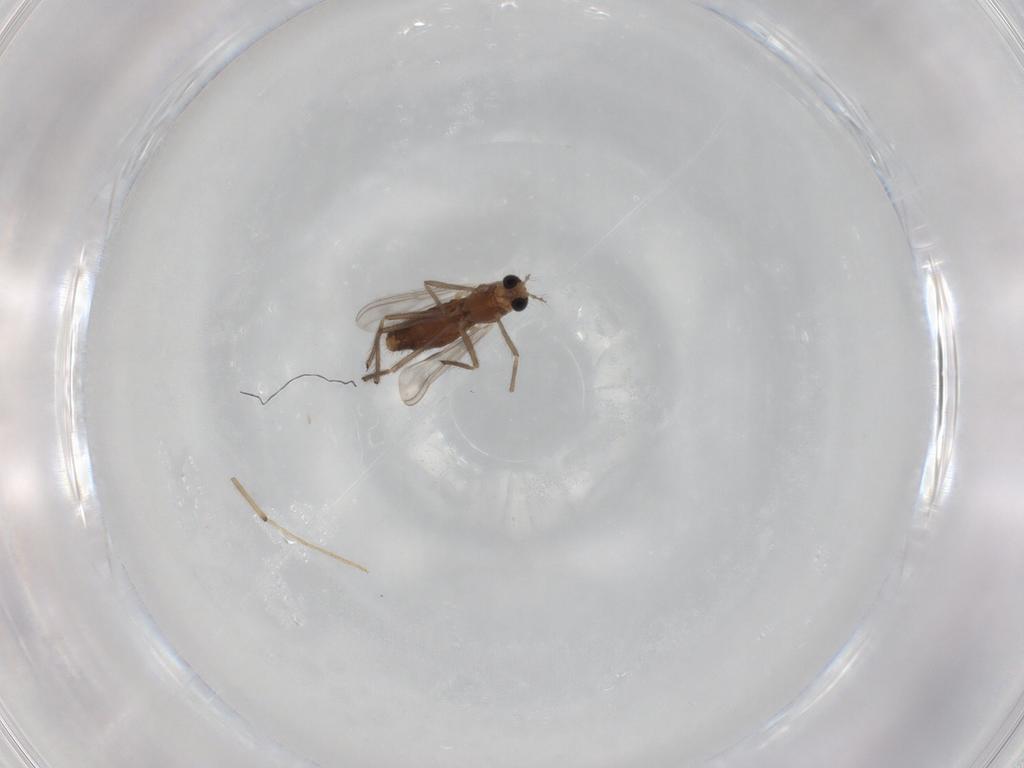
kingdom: Animalia
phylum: Arthropoda
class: Insecta
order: Diptera
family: Chironomidae
